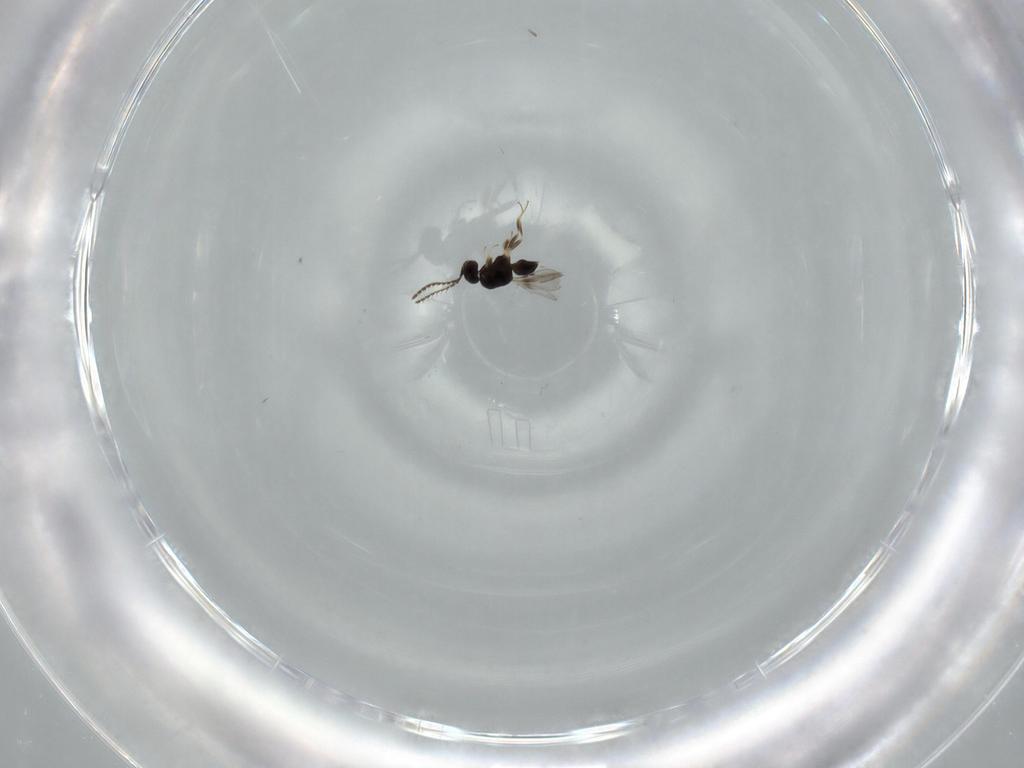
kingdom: Animalia
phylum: Arthropoda
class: Insecta
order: Hymenoptera
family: Ceraphronidae
